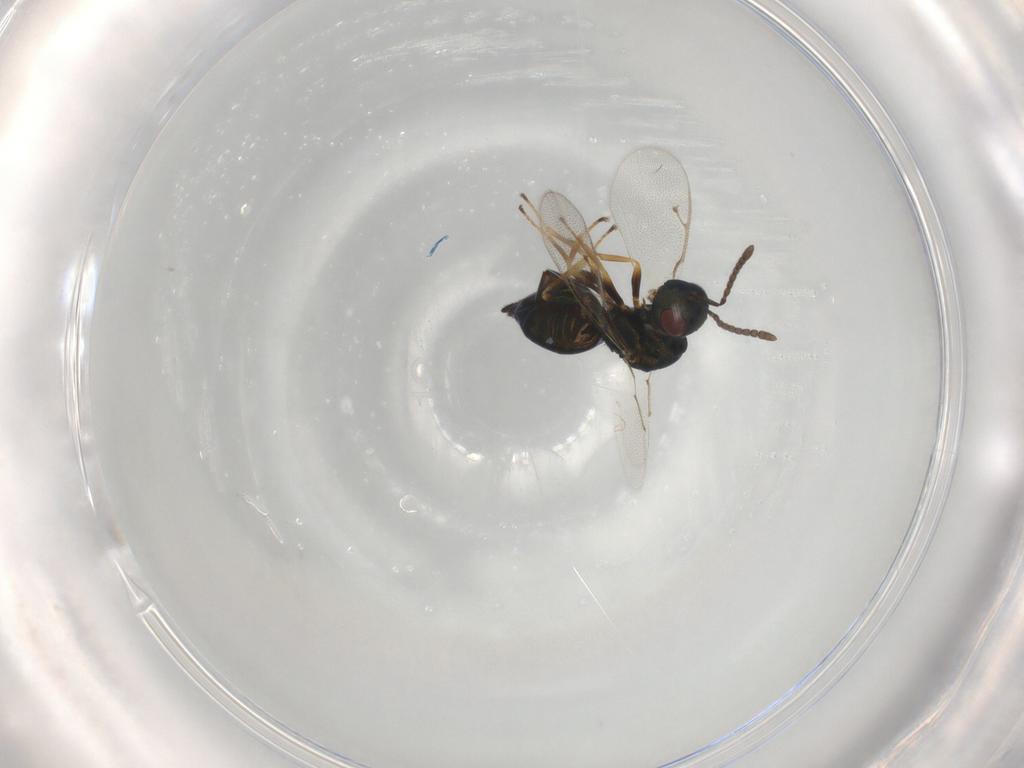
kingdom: Animalia
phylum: Arthropoda
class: Insecta
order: Hymenoptera
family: Pteromalidae
